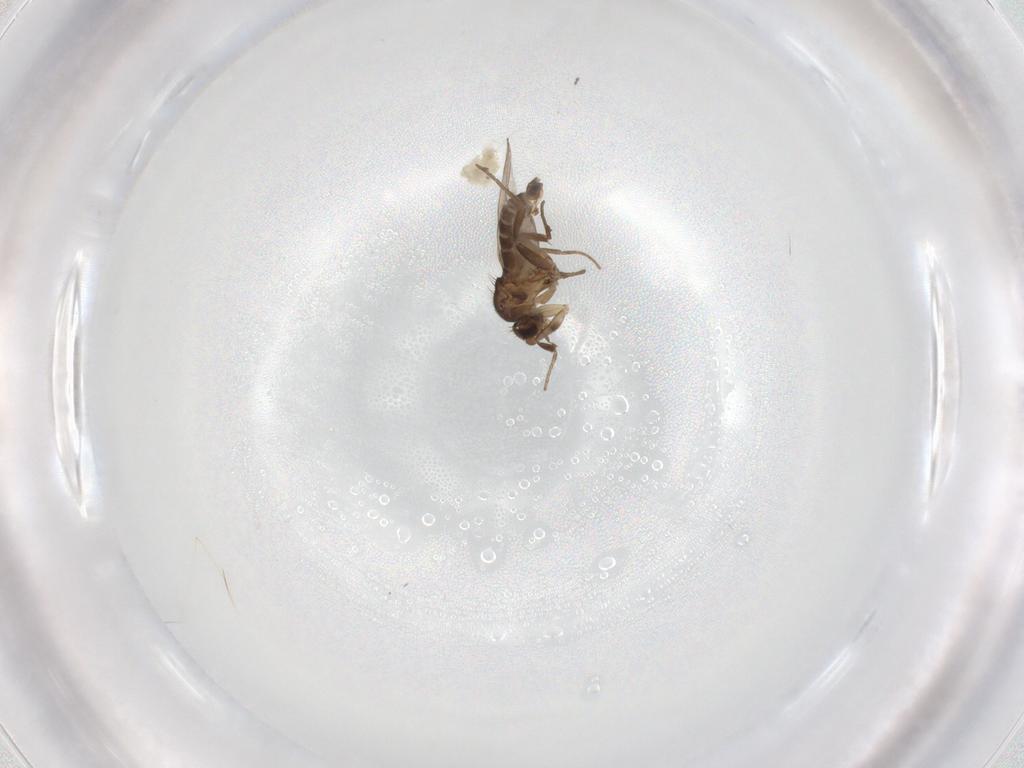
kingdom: Animalia
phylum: Arthropoda
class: Insecta
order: Diptera
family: Phoridae
